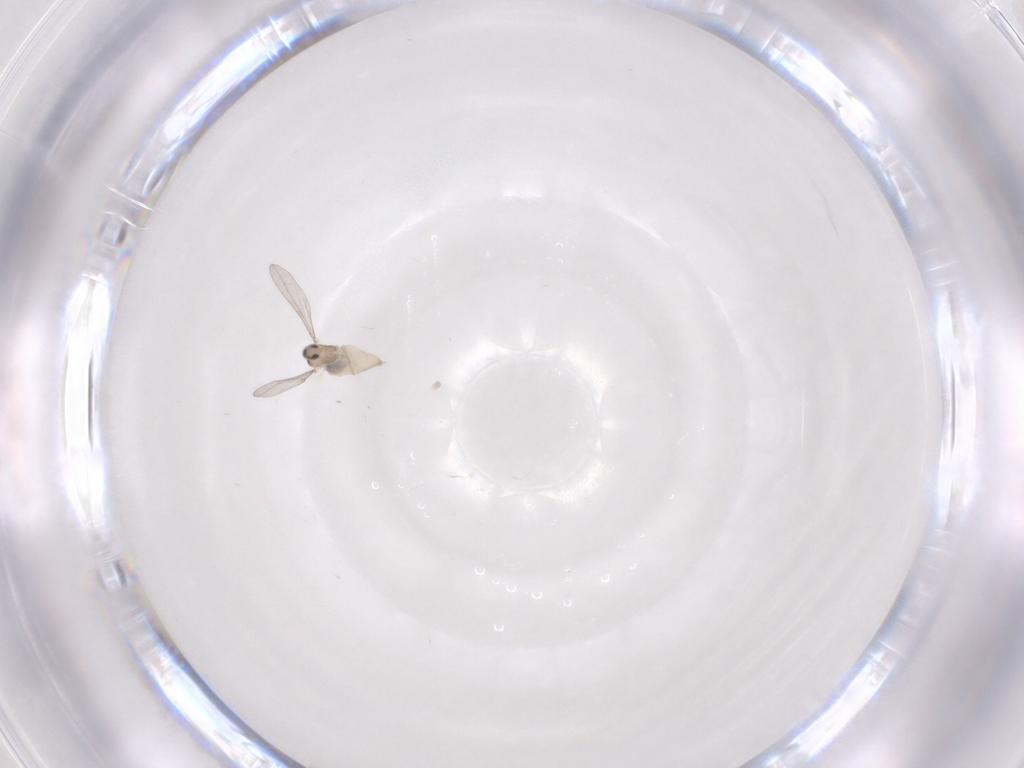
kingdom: Animalia
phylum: Arthropoda
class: Insecta
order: Diptera
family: Cecidomyiidae
